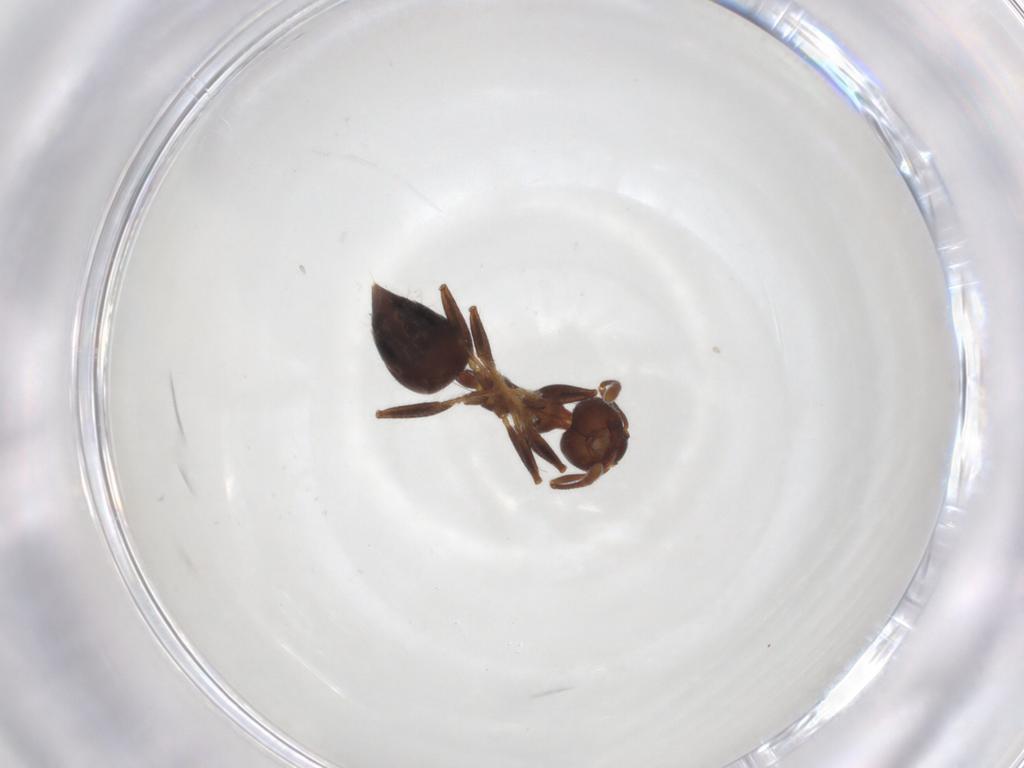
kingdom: Animalia
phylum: Arthropoda
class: Insecta
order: Hymenoptera
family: Formicidae
